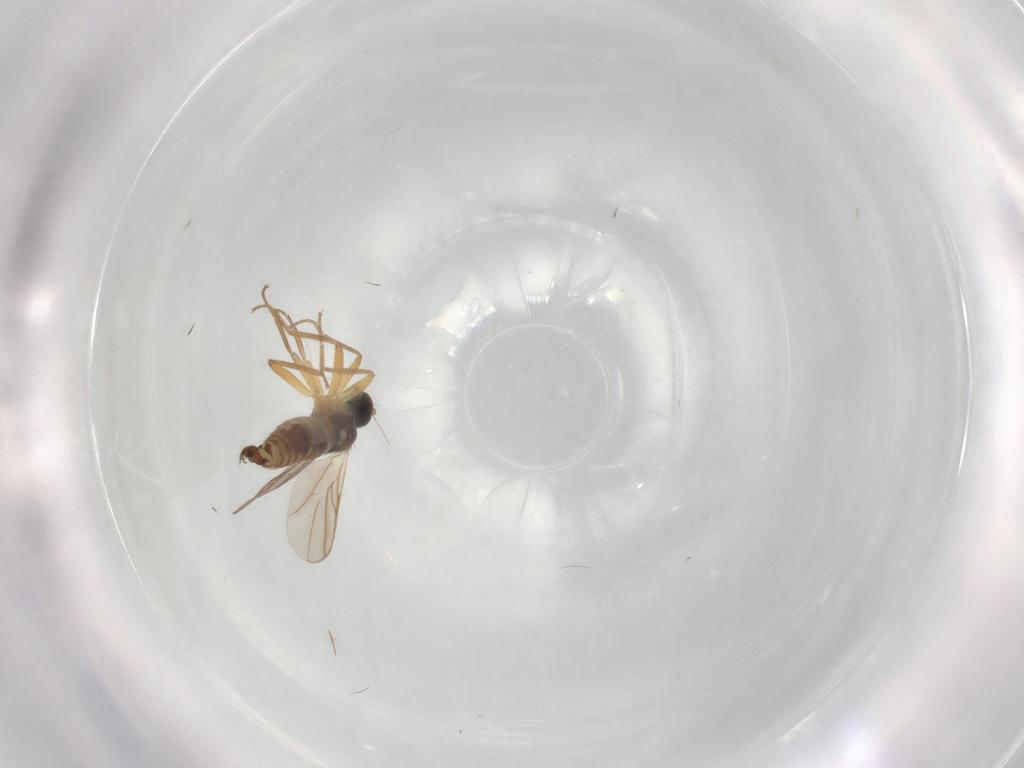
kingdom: Animalia
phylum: Arthropoda
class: Insecta
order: Diptera
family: Hybotidae
